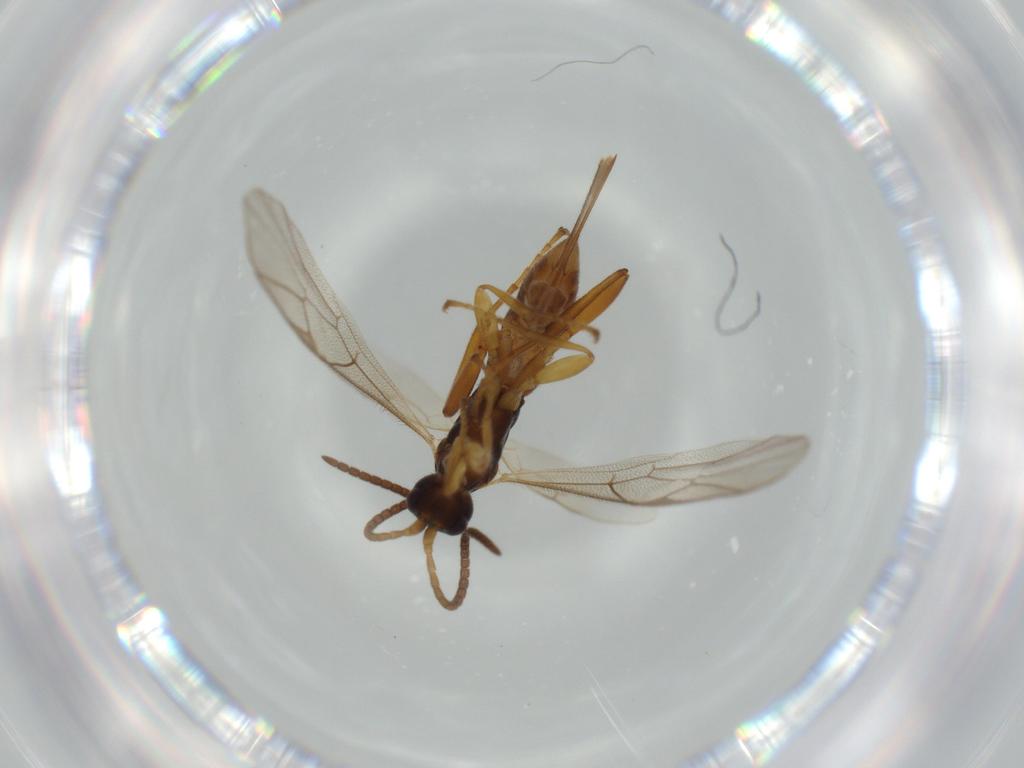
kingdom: Animalia
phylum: Arthropoda
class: Insecta
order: Hymenoptera
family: Ichneumonidae
